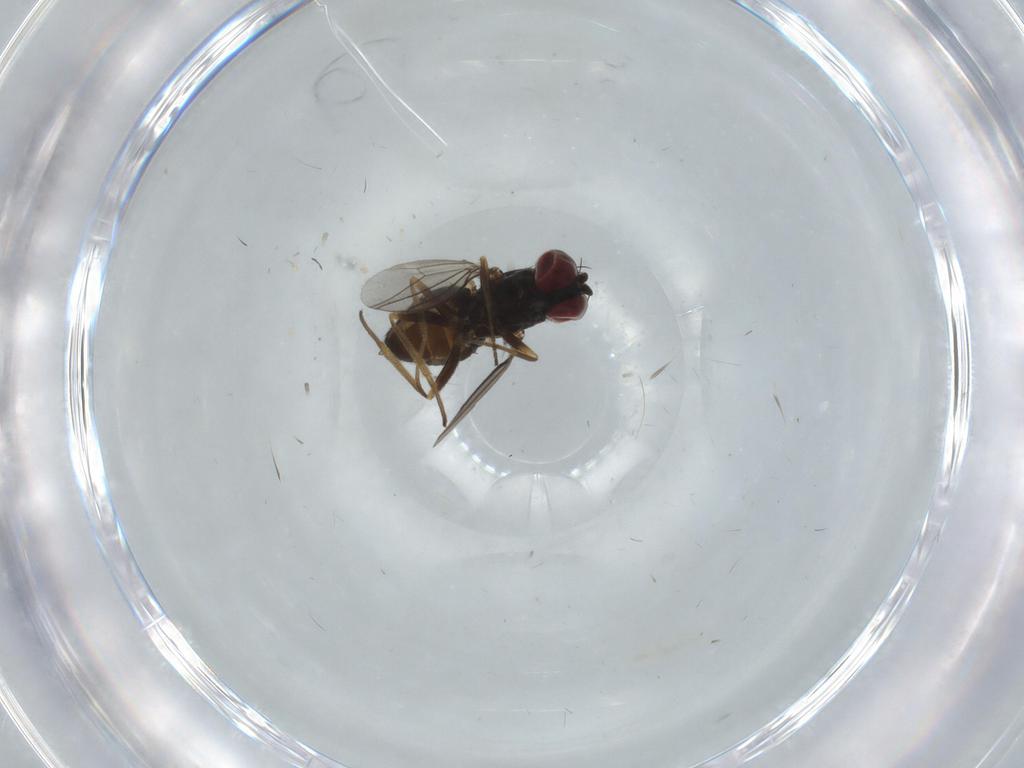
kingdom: Animalia
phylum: Arthropoda
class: Insecta
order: Diptera
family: Dolichopodidae
